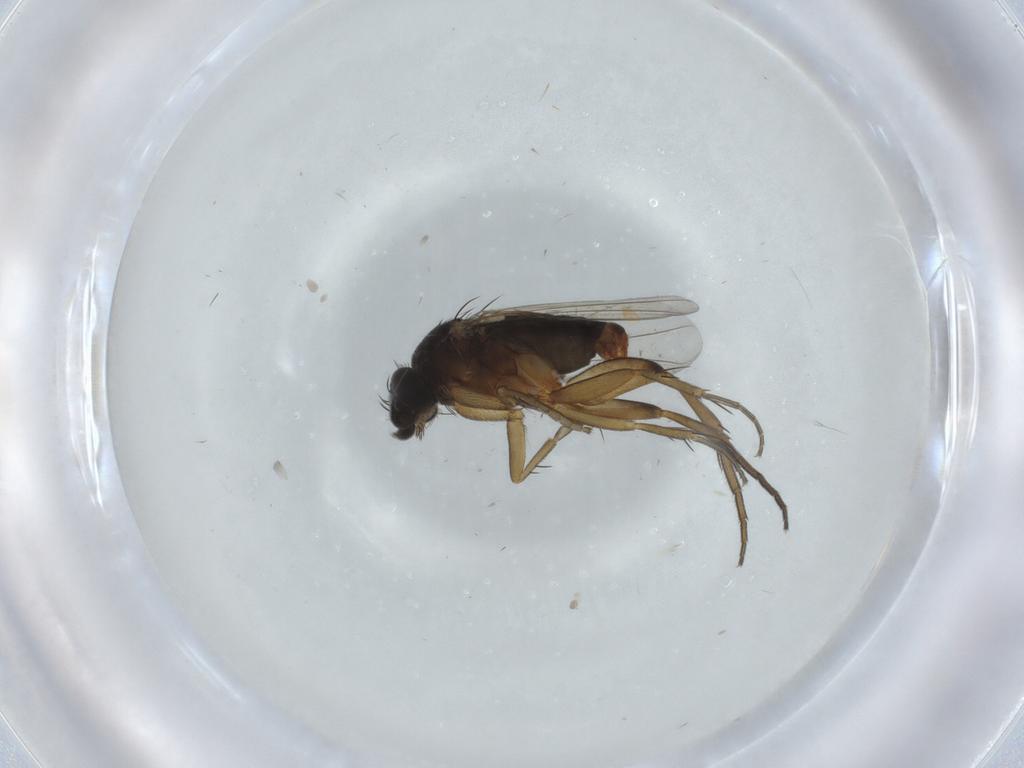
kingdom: Animalia
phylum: Arthropoda
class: Insecta
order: Diptera
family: Phoridae
